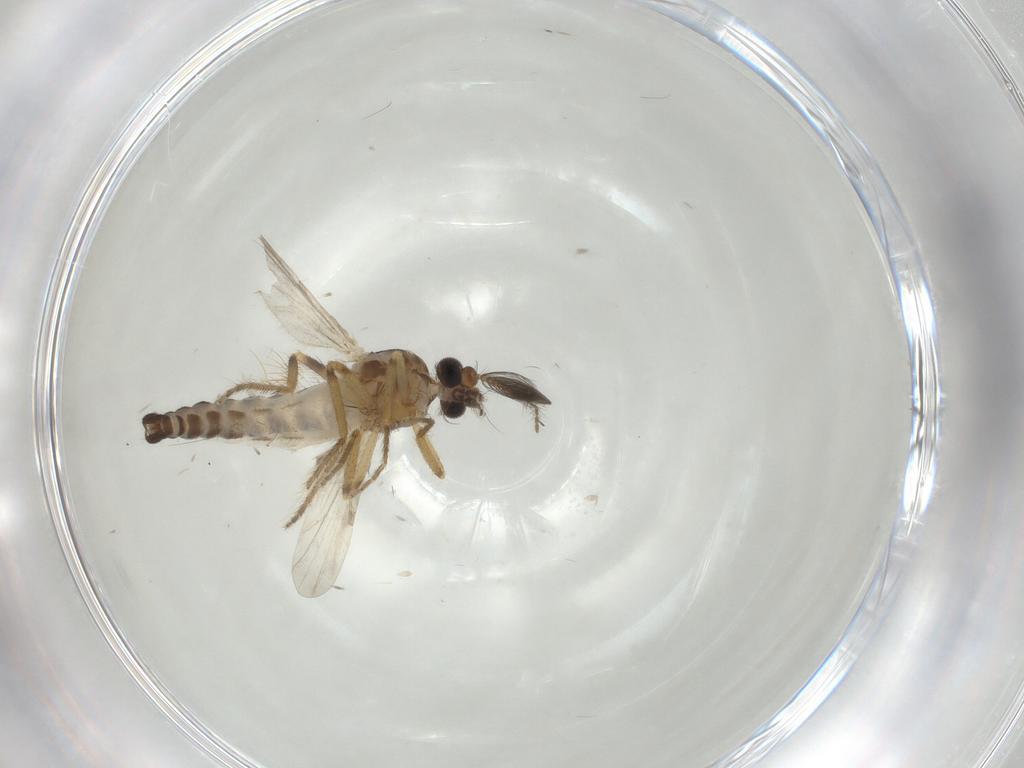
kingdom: Animalia
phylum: Arthropoda
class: Insecta
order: Diptera
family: Ceratopogonidae
